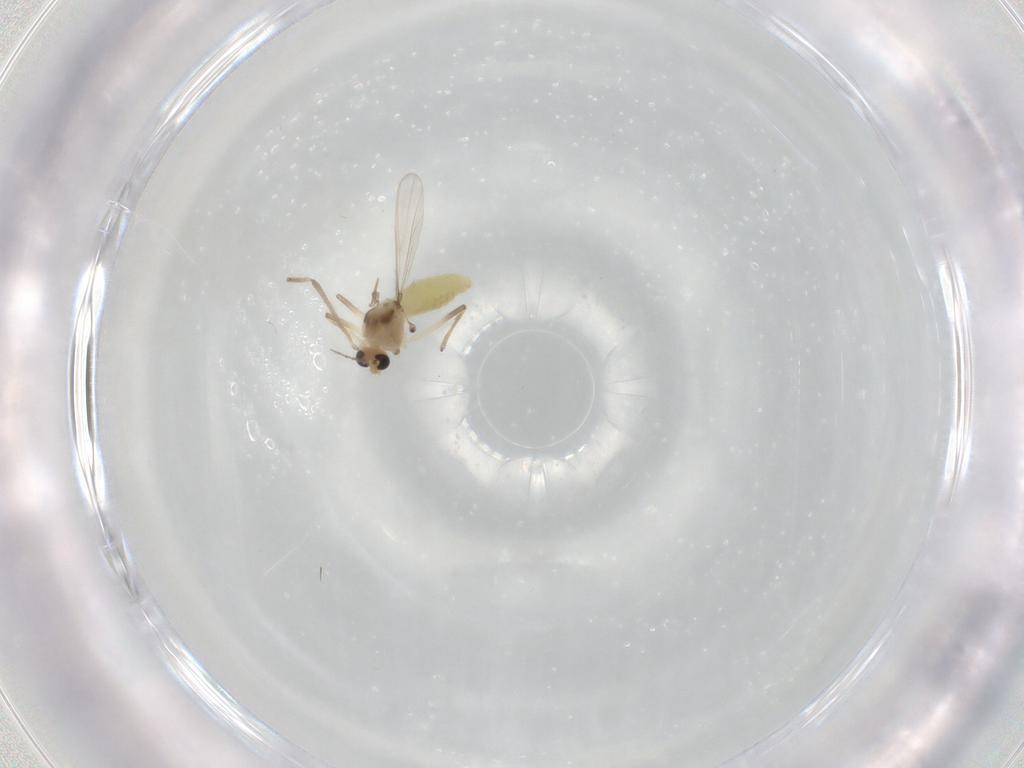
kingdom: Animalia
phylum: Arthropoda
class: Insecta
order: Diptera
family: Chironomidae
